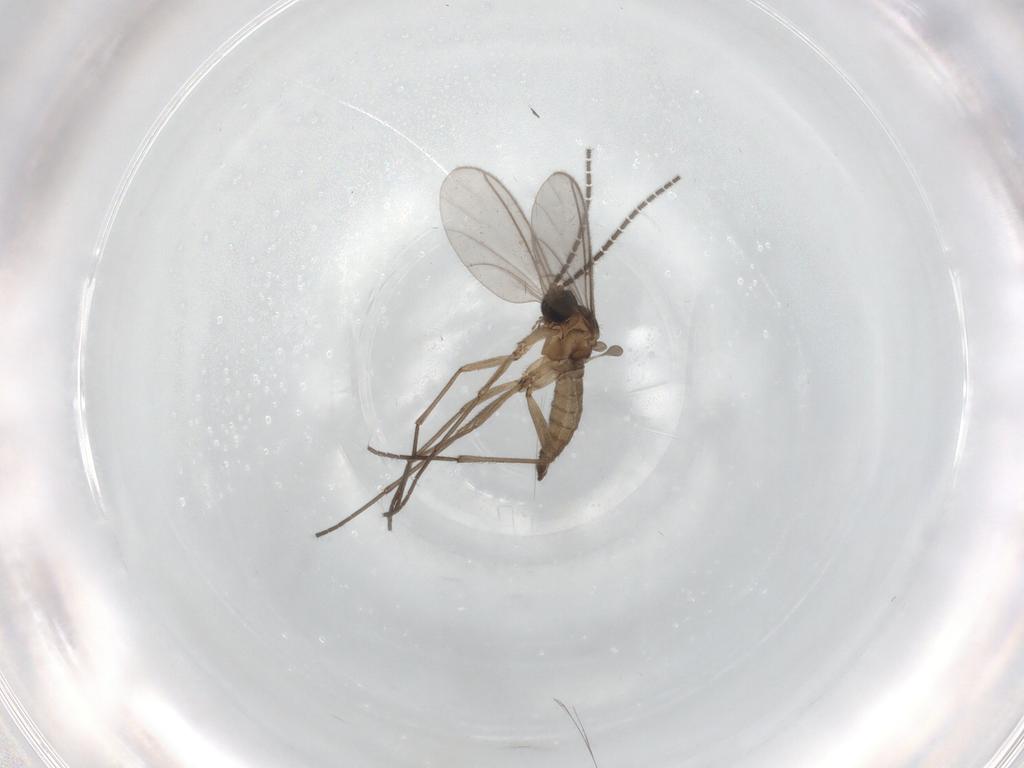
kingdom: Animalia
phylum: Arthropoda
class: Insecta
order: Diptera
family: Sciaridae
